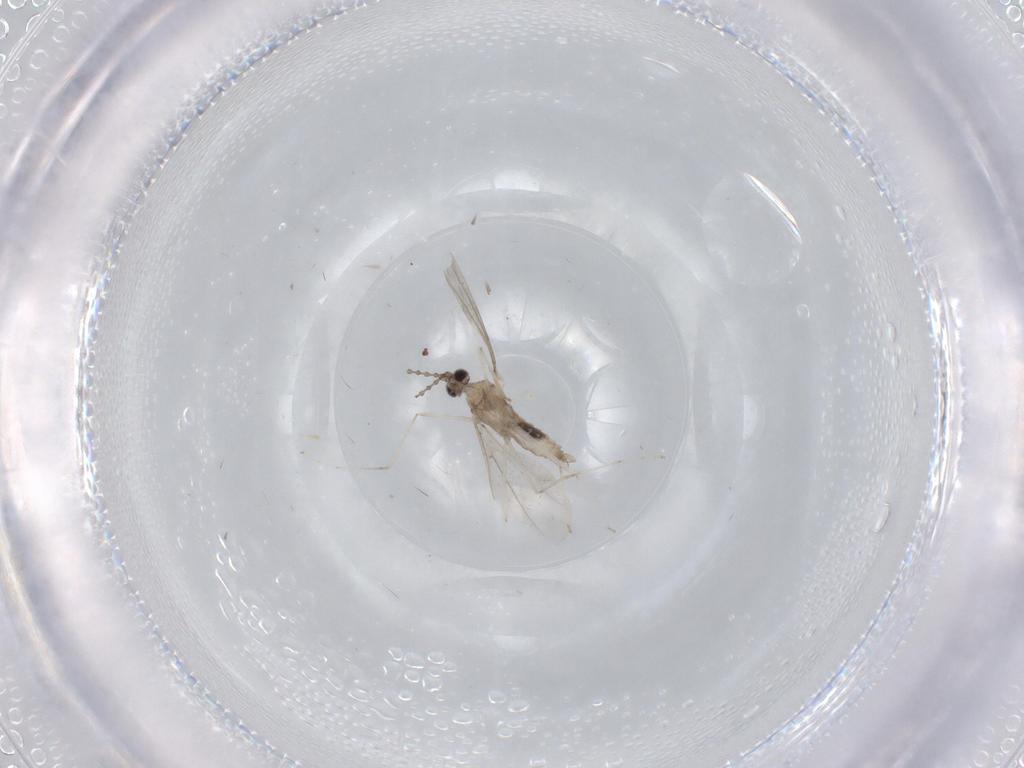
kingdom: Animalia
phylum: Arthropoda
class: Insecta
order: Diptera
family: Cecidomyiidae
